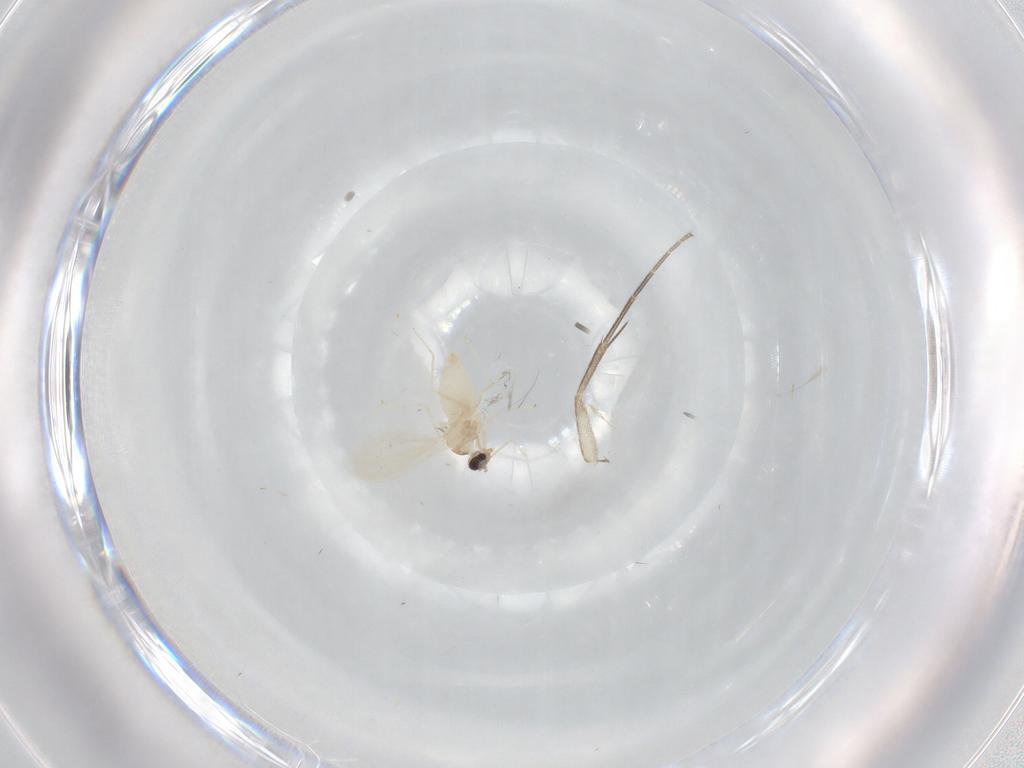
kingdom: Animalia
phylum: Arthropoda
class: Insecta
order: Diptera
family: Cecidomyiidae
